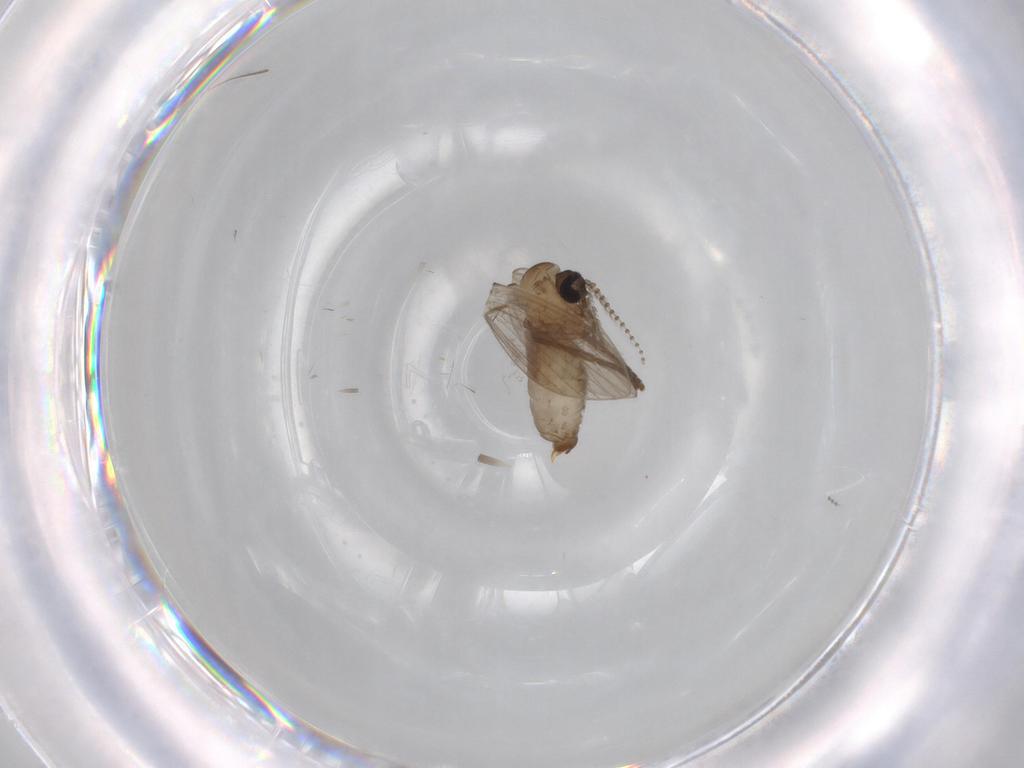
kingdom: Animalia
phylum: Arthropoda
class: Insecta
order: Diptera
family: Psychodidae
